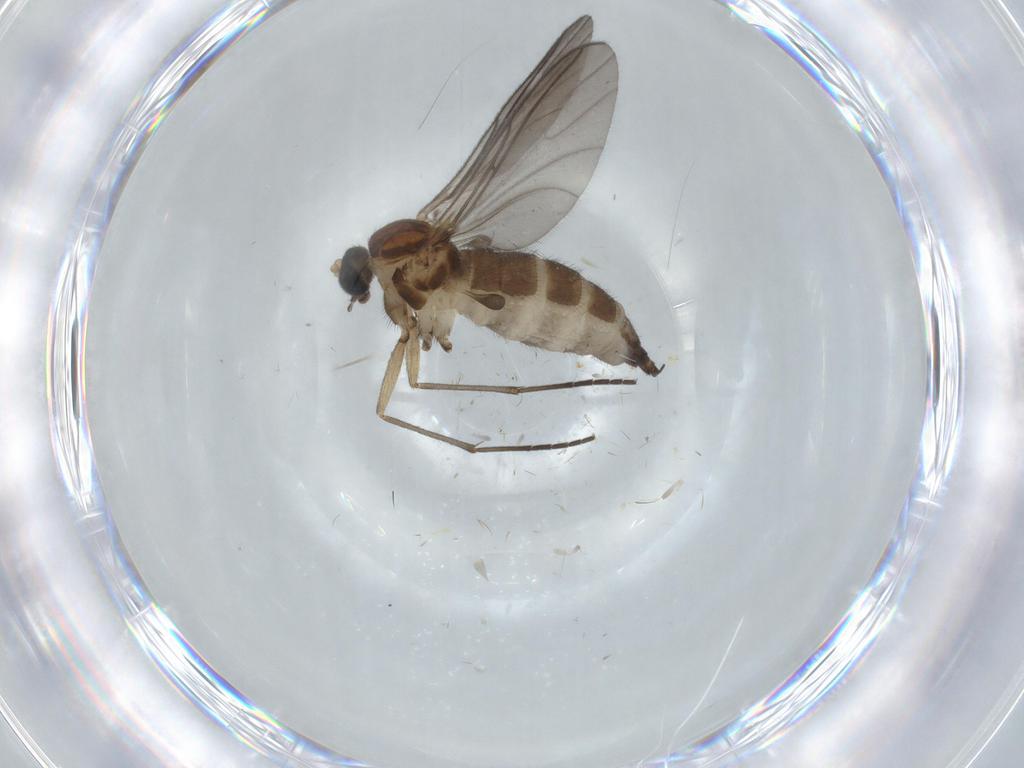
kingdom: Animalia
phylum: Arthropoda
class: Insecta
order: Diptera
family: Sciaridae
